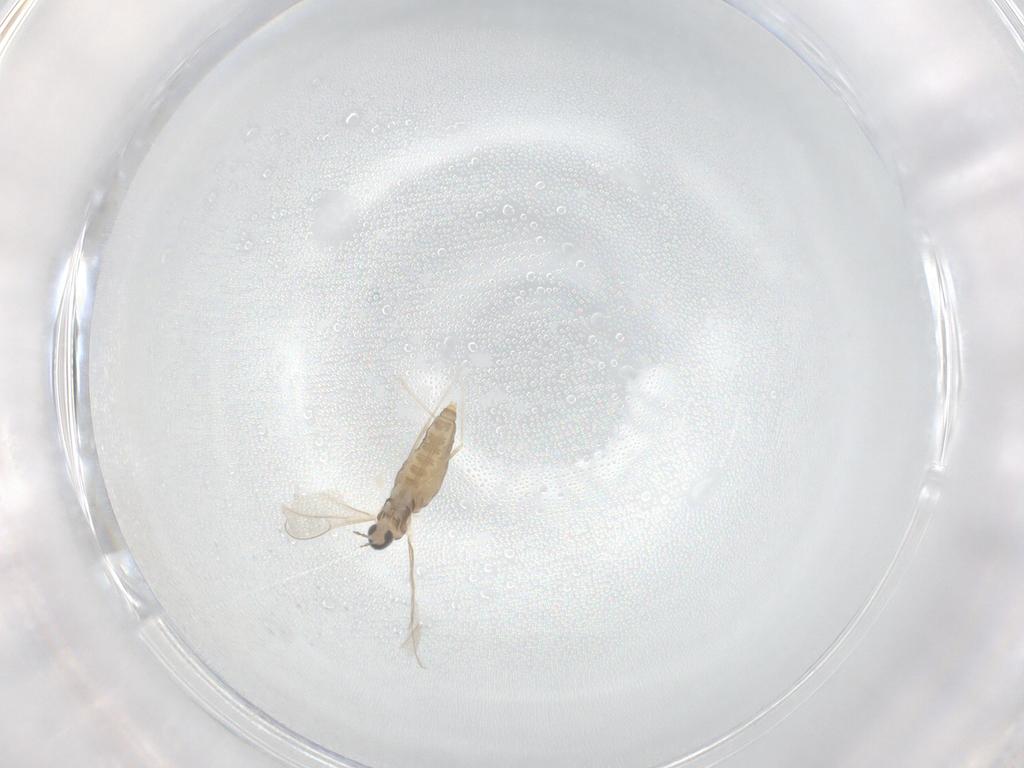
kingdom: Animalia
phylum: Arthropoda
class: Insecta
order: Diptera
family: Cecidomyiidae
